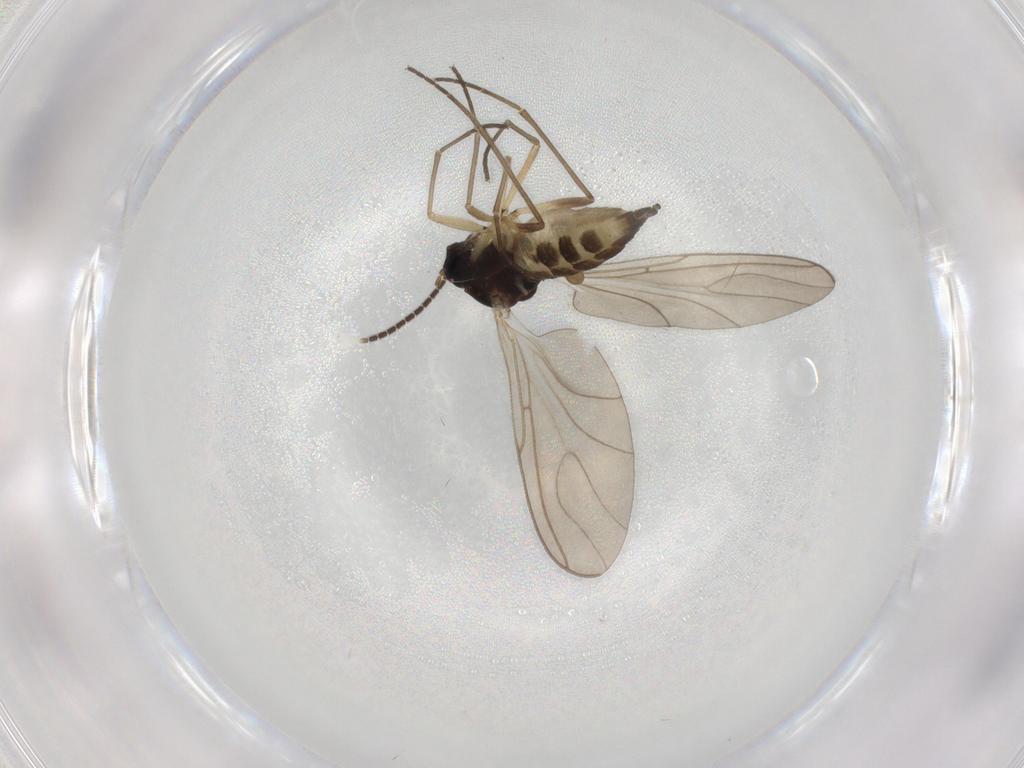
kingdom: Animalia
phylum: Arthropoda
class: Insecta
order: Diptera
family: Sciaridae
